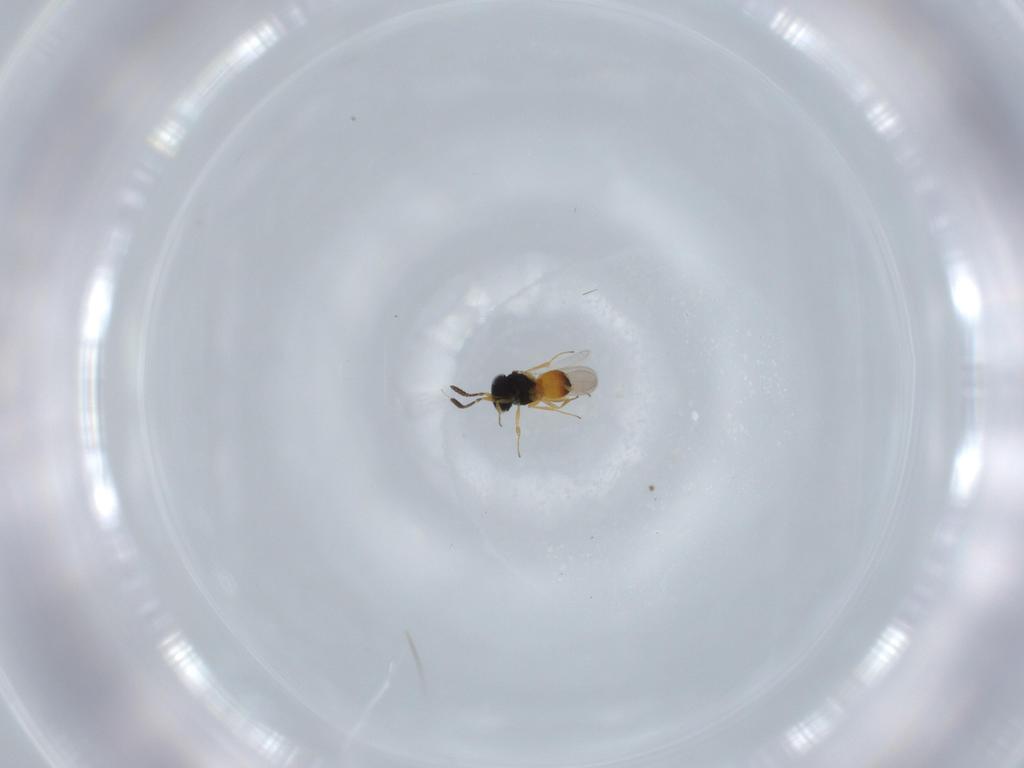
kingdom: Animalia
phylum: Arthropoda
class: Insecta
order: Hymenoptera
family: Scelionidae
